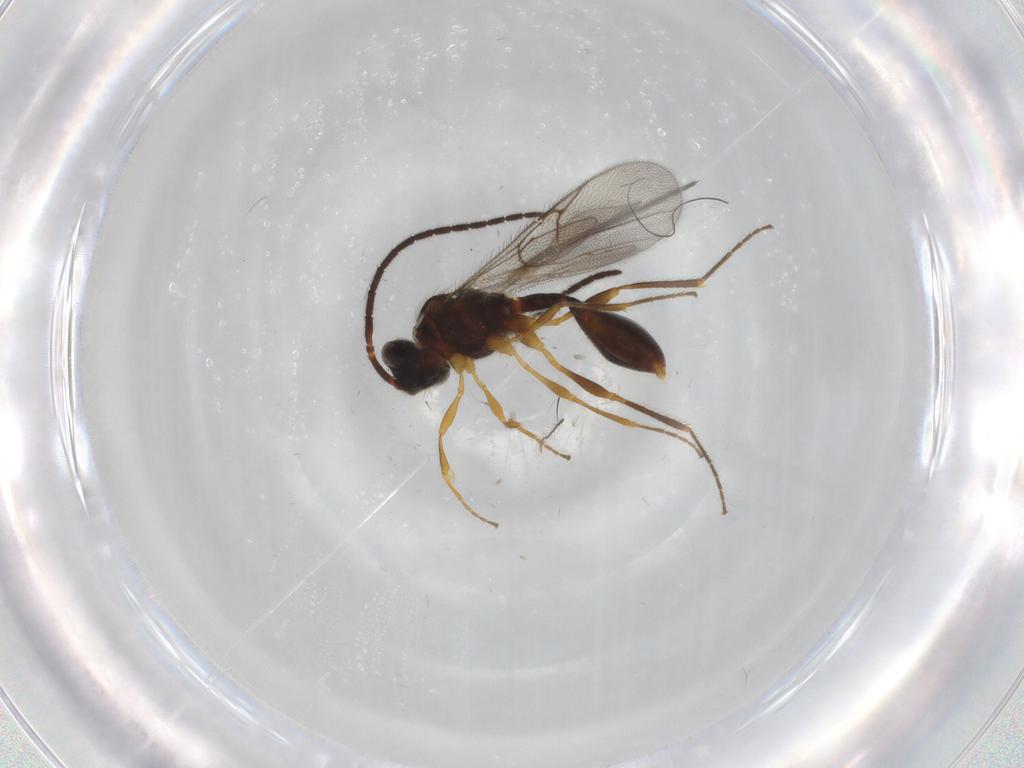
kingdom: Animalia
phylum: Arthropoda
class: Insecta
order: Hymenoptera
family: Diapriidae
